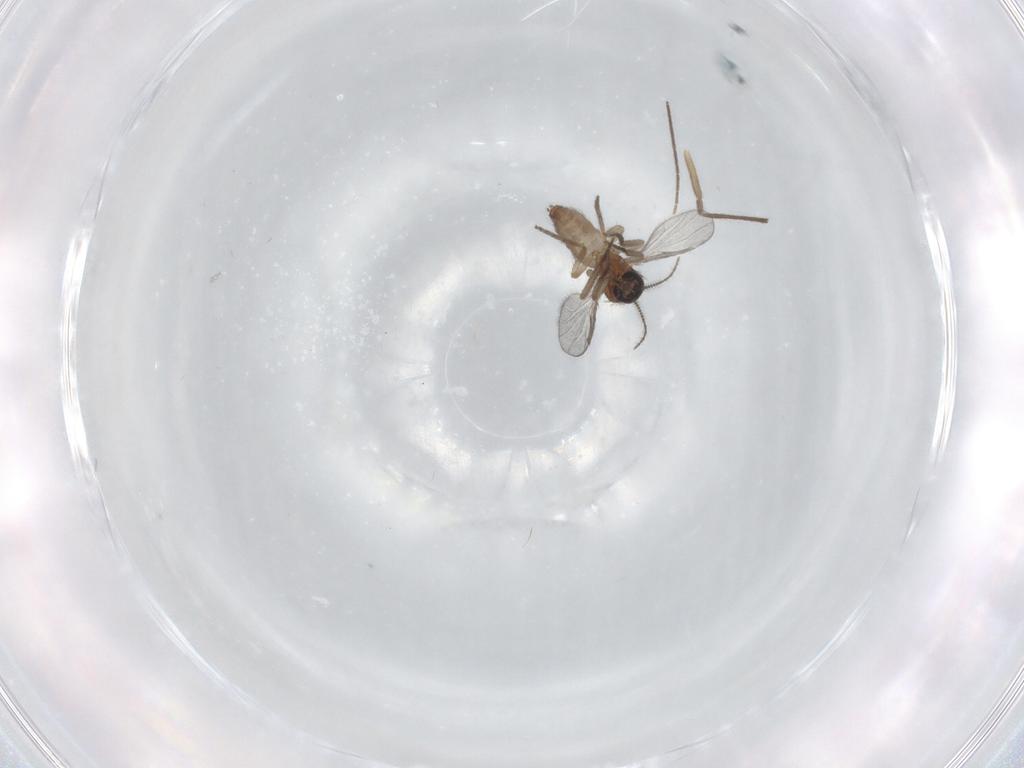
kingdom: Animalia
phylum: Arthropoda
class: Insecta
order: Diptera
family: Chironomidae
